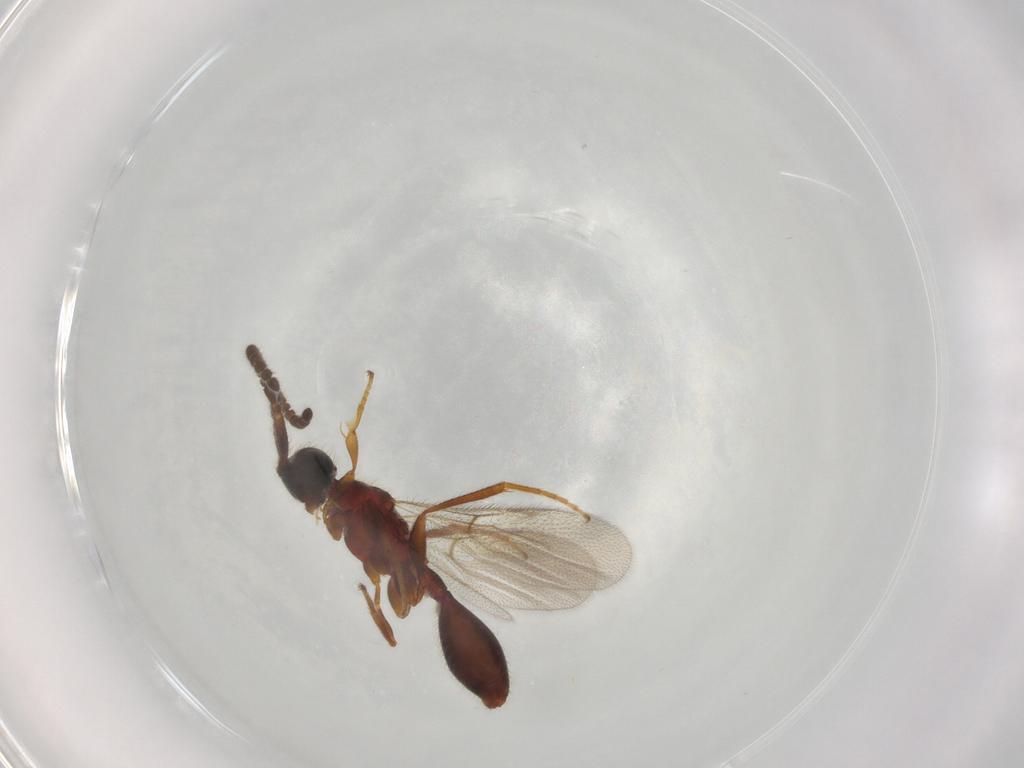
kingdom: Animalia
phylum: Arthropoda
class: Insecta
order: Hymenoptera
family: Diapriidae
